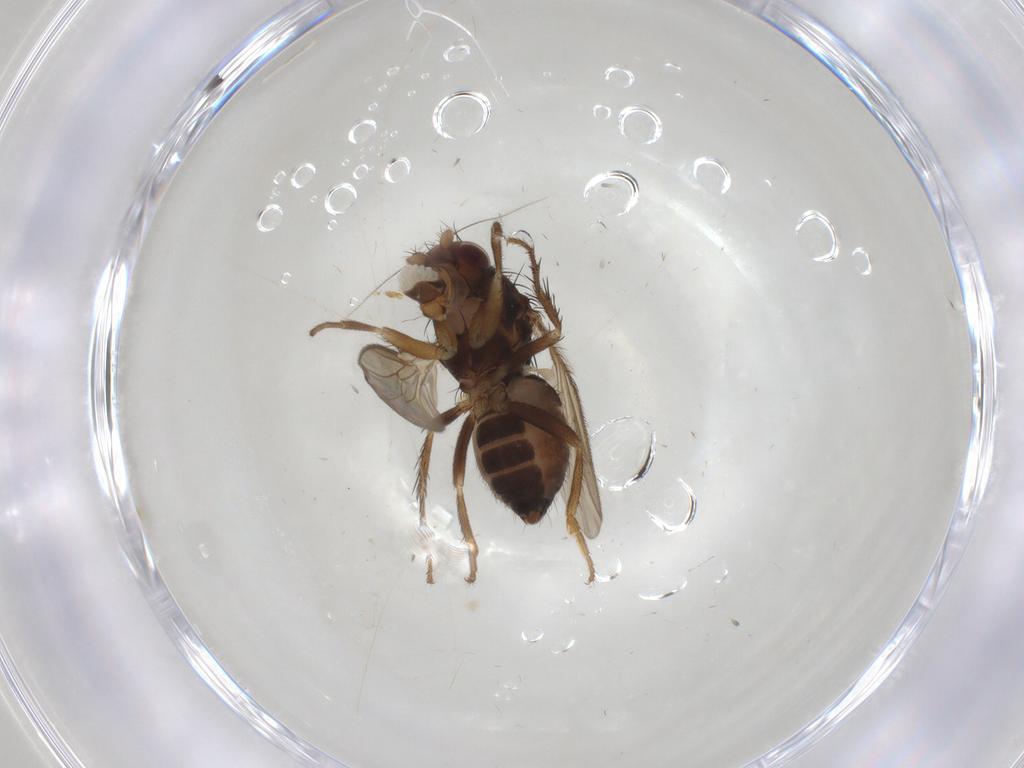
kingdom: Animalia
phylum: Arthropoda
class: Insecta
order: Diptera
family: Sphaeroceridae
